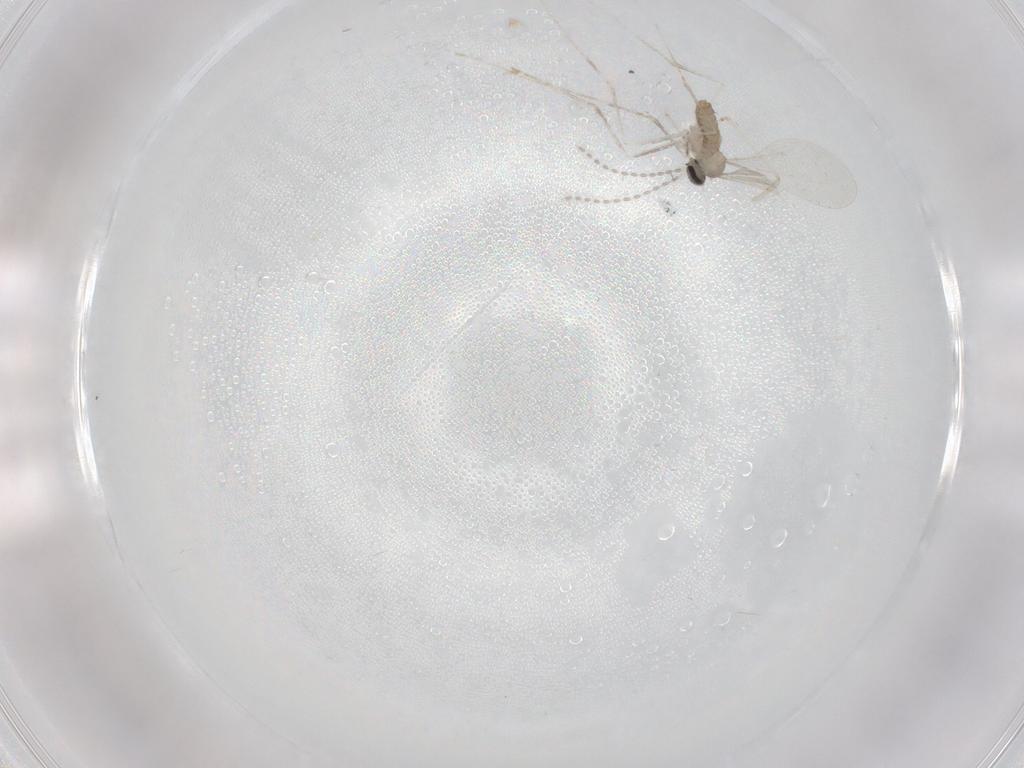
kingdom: Animalia
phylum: Arthropoda
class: Insecta
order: Diptera
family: Cecidomyiidae
